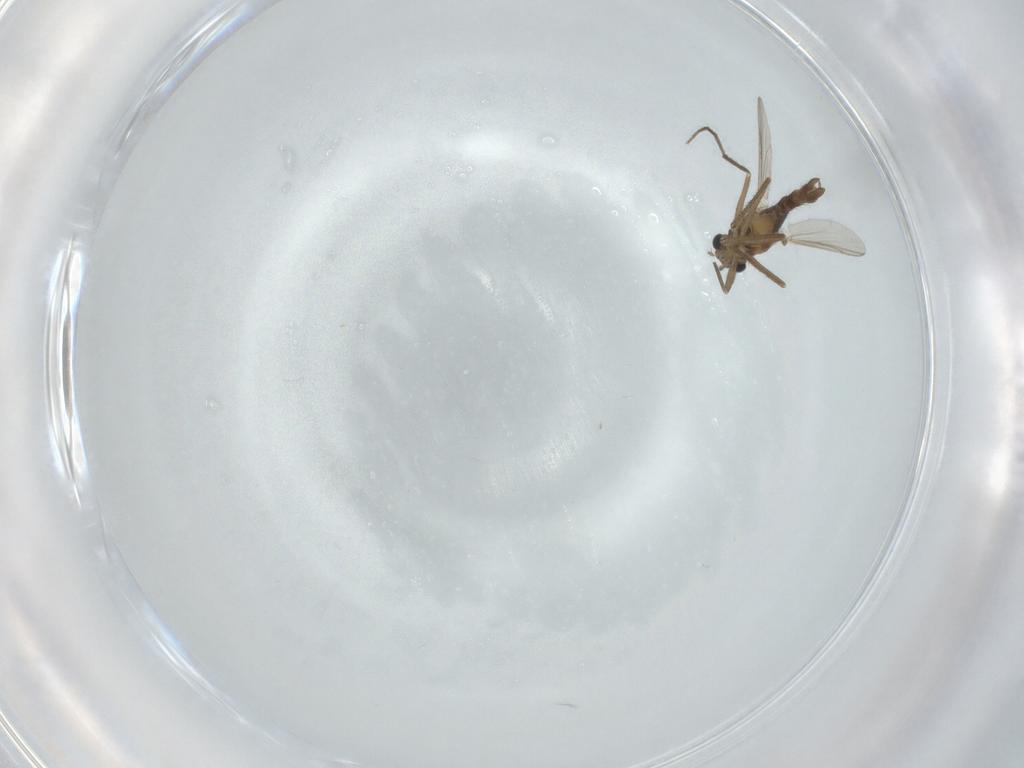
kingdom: Animalia
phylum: Arthropoda
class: Insecta
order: Diptera
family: Chironomidae
